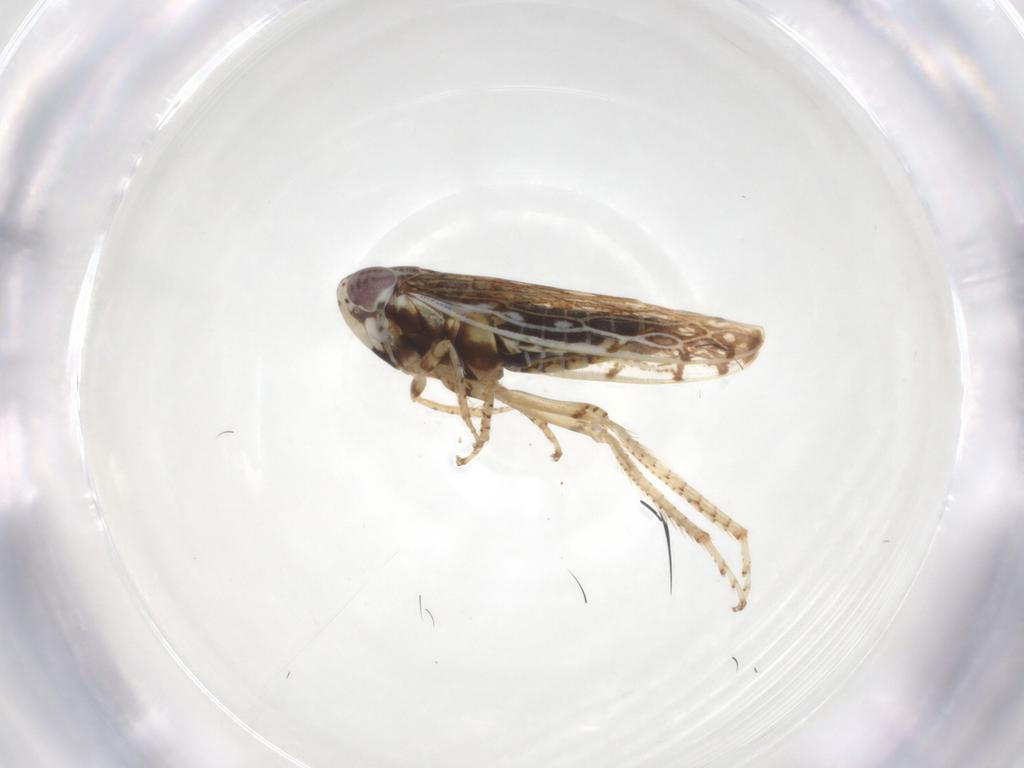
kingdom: Animalia
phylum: Arthropoda
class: Insecta
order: Hemiptera
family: Cicadellidae
